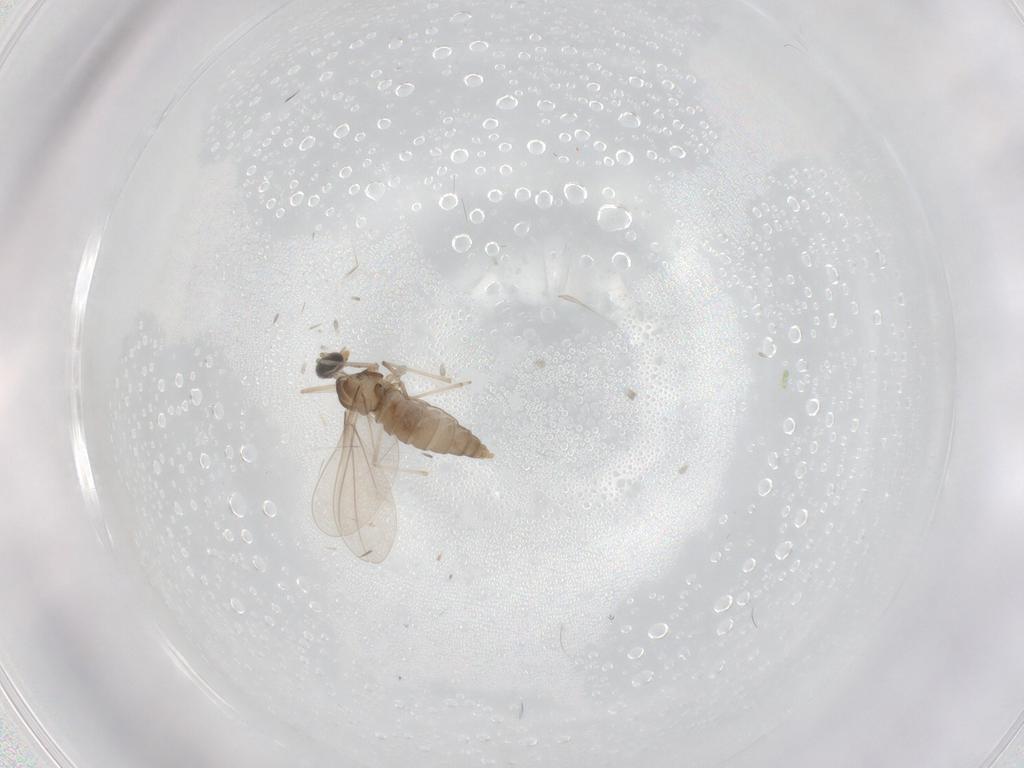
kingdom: Animalia
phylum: Arthropoda
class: Insecta
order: Diptera
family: Cecidomyiidae
